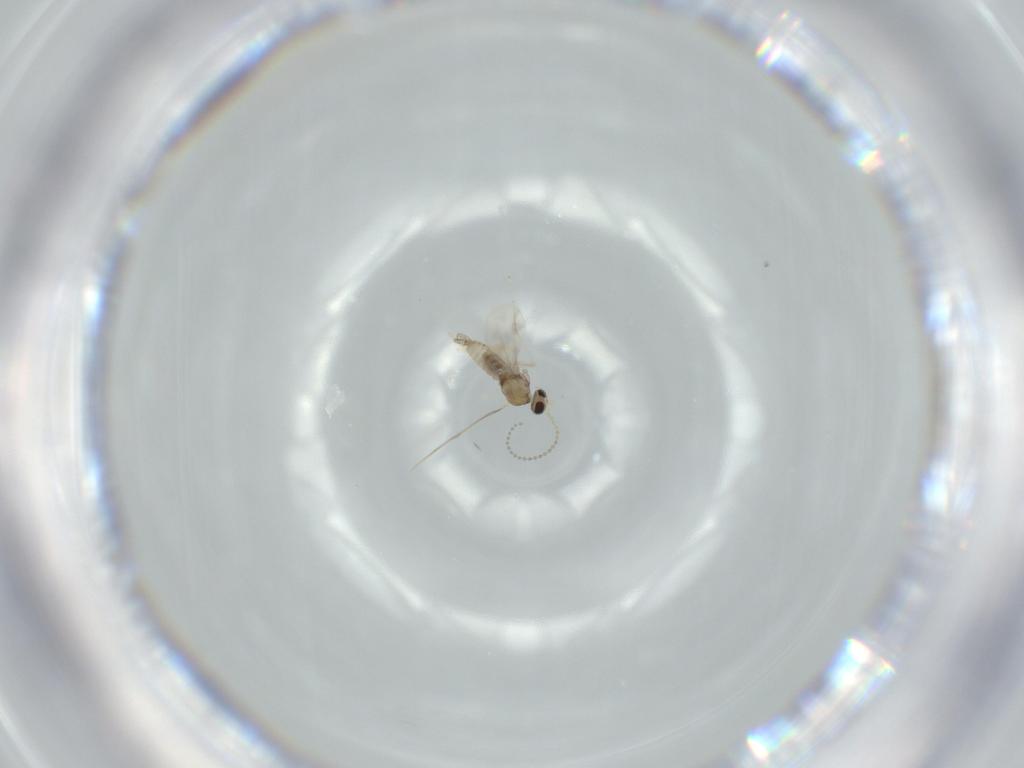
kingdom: Animalia
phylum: Arthropoda
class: Insecta
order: Diptera
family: Cecidomyiidae
